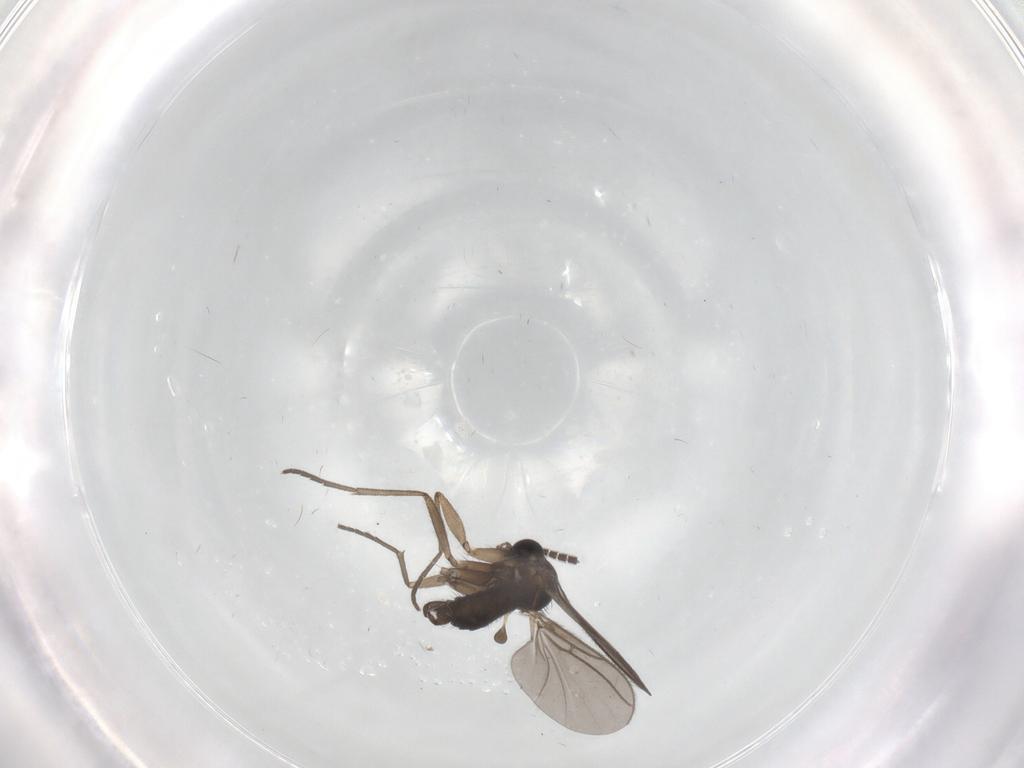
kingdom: Animalia
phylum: Arthropoda
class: Insecta
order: Diptera
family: Sciaridae
